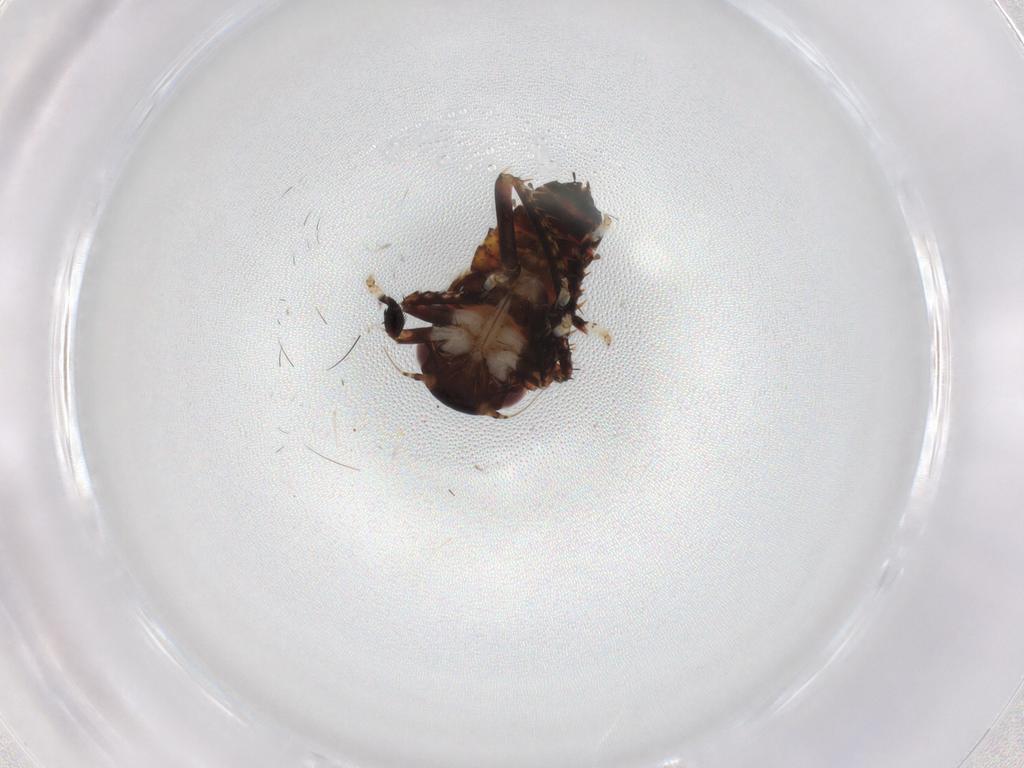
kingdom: Animalia
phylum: Arthropoda
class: Insecta
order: Hemiptera
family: Cicadellidae
